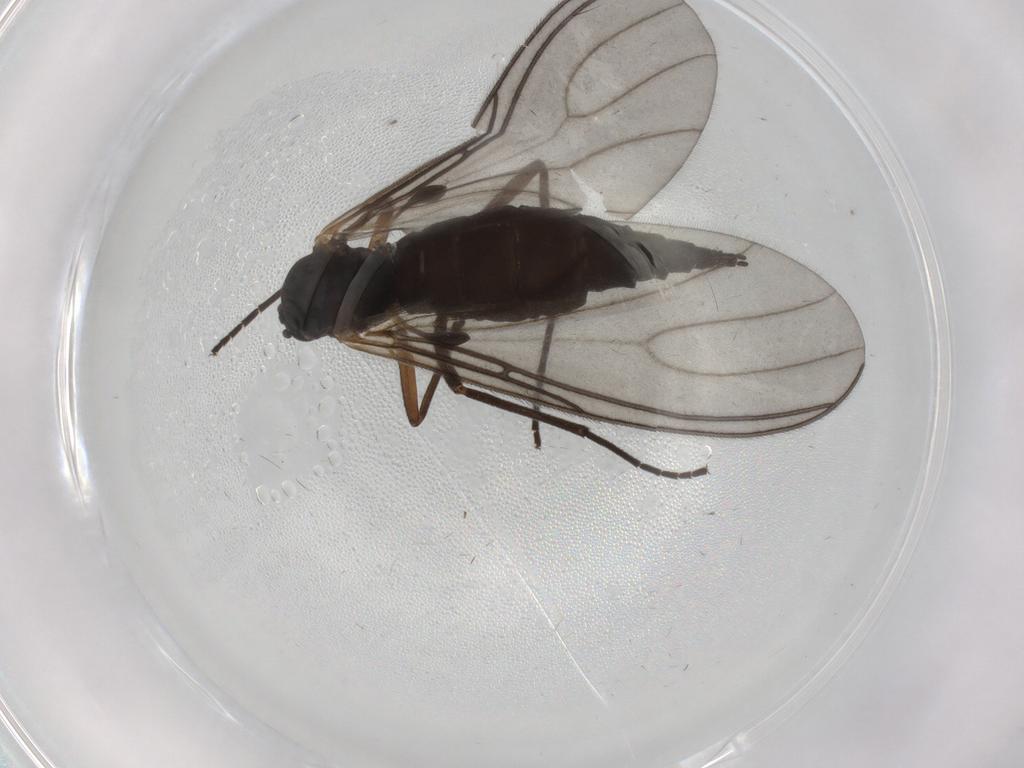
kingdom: Animalia
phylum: Arthropoda
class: Insecta
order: Diptera
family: Sciaridae
